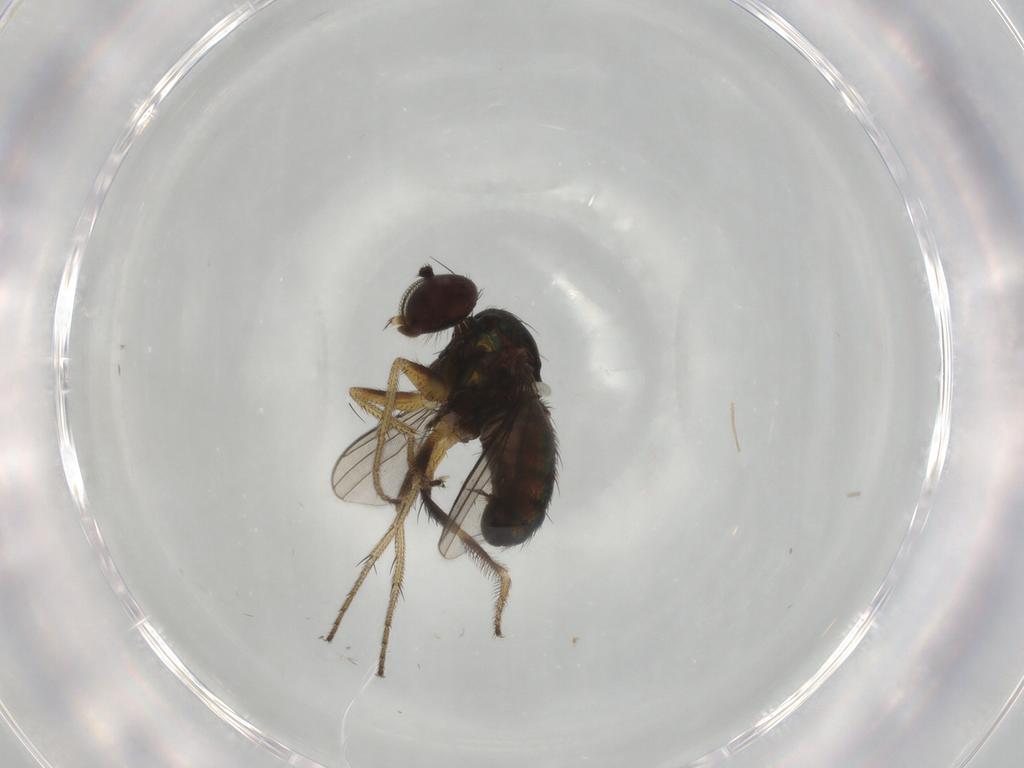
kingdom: Animalia
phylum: Arthropoda
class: Insecta
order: Diptera
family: Dolichopodidae
